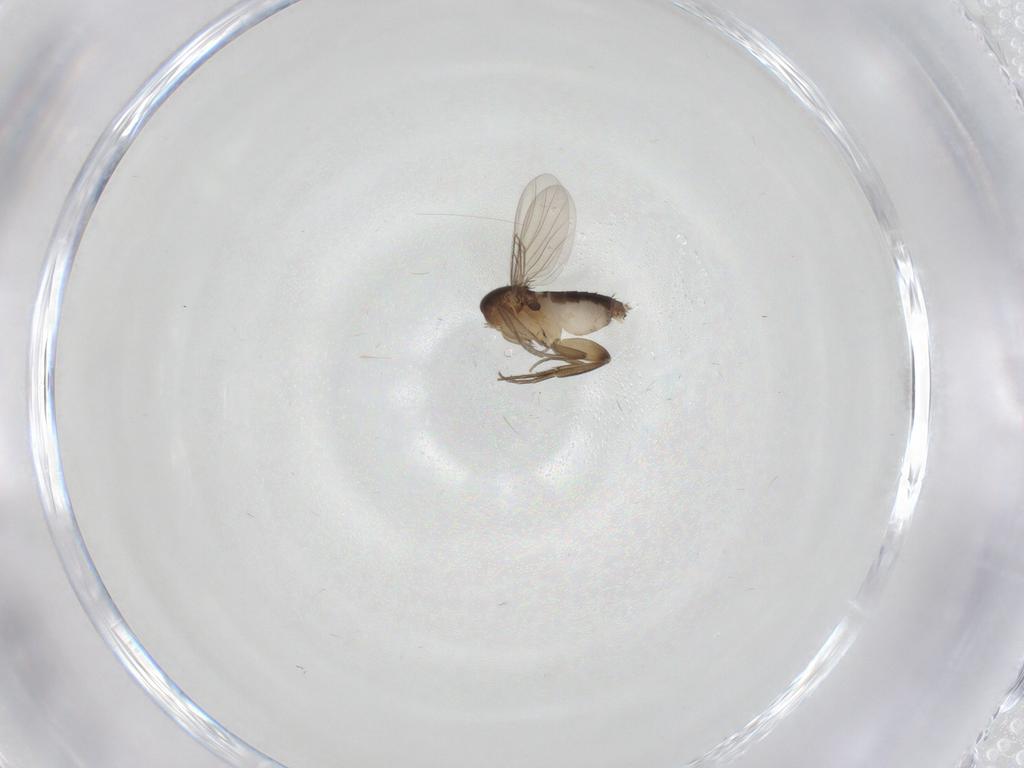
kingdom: Animalia
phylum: Arthropoda
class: Insecta
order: Diptera
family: Phoridae
